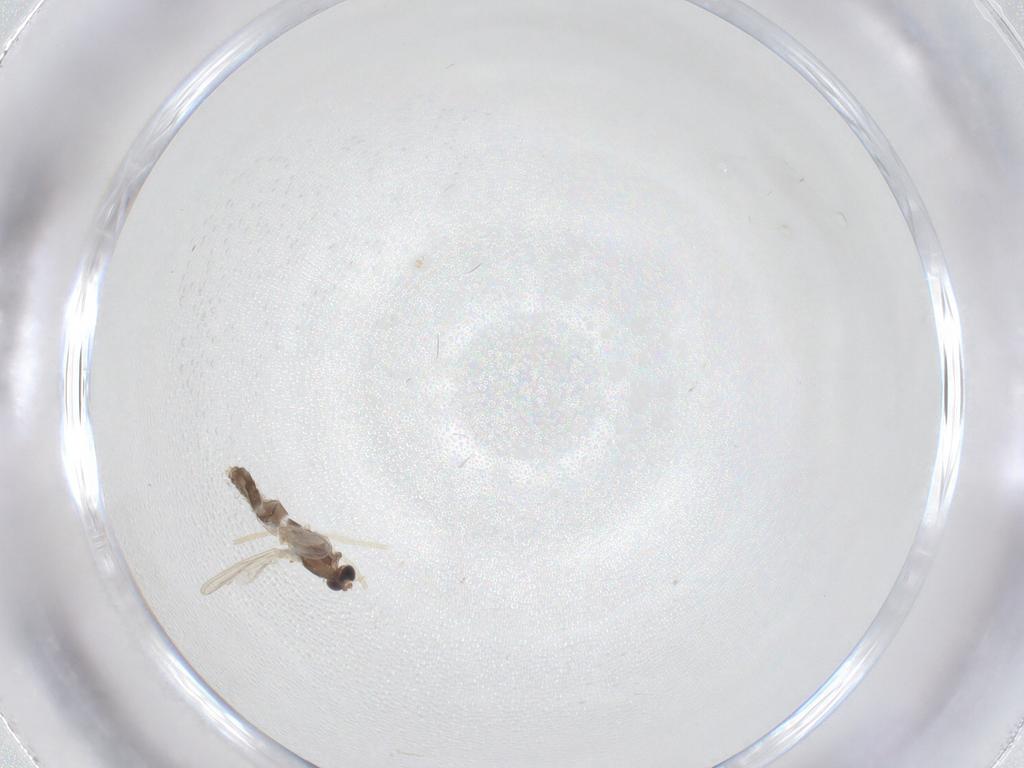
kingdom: Animalia
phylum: Arthropoda
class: Insecta
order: Diptera
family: Chironomidae
